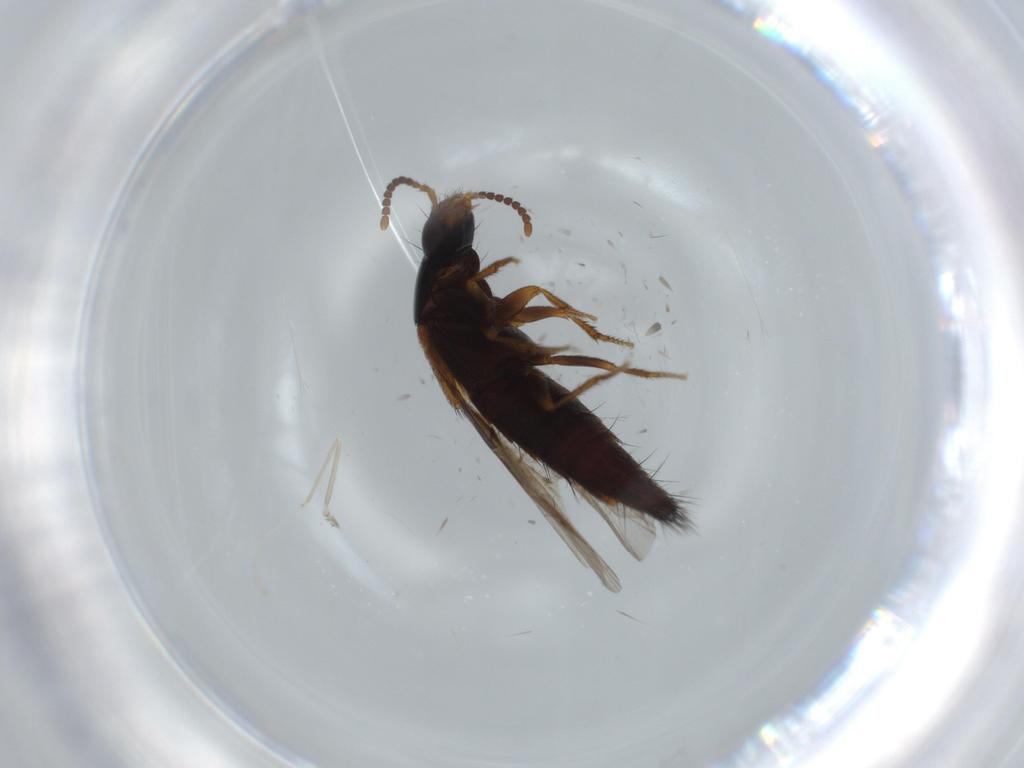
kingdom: Animalia
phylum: Arthropoda
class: Insecta
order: Coleoptera
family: Staphylinidae
